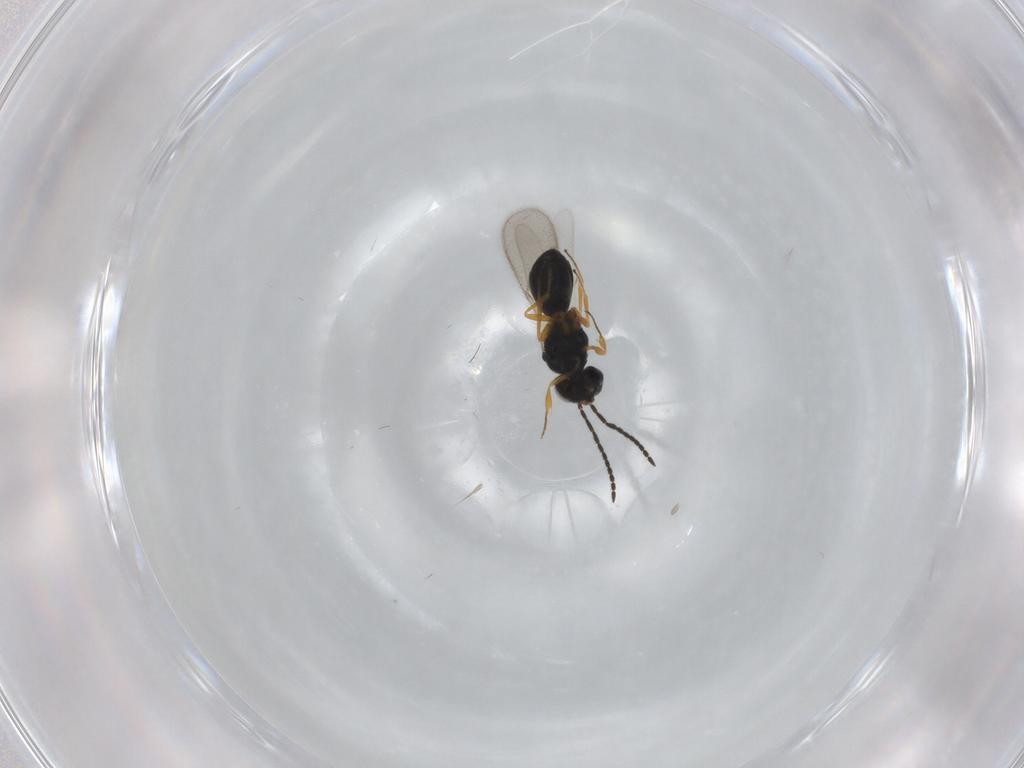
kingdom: Animalia
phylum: Arthropoda
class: Insecta
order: Hymenoptera
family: Scelionidae
